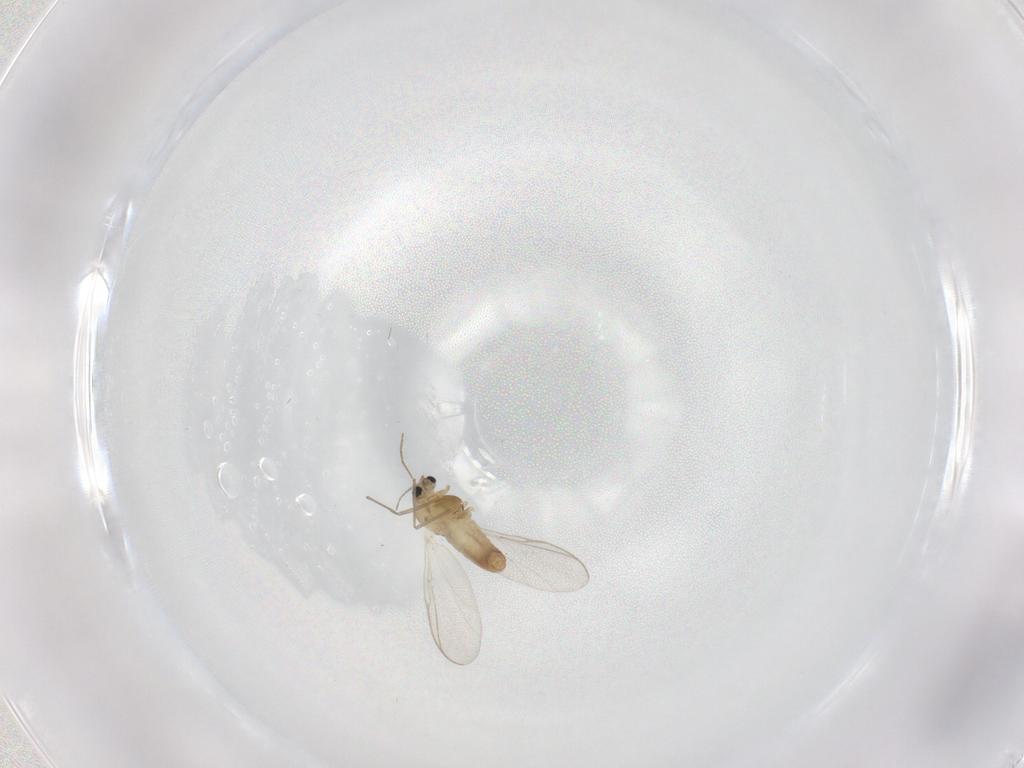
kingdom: Animalia
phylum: Arthropoda
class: Insecta
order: Diptera
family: Chironomidae
